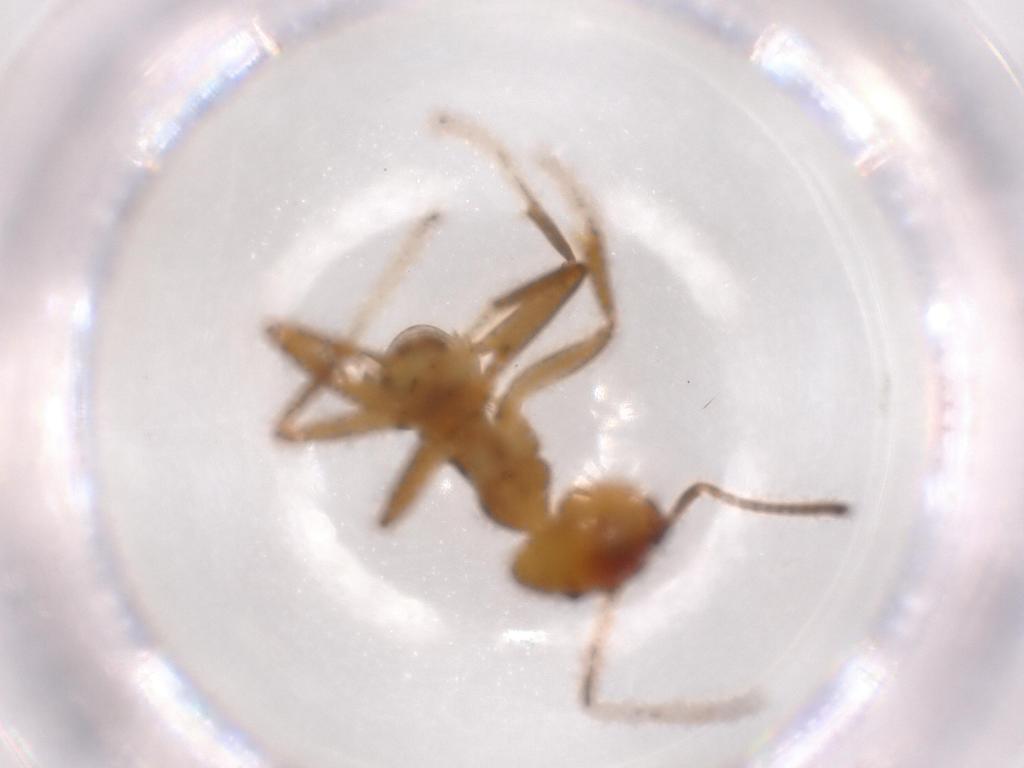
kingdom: Animalia
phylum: Arthropoda
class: Insecta
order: Hymenoptera
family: Formicidae
